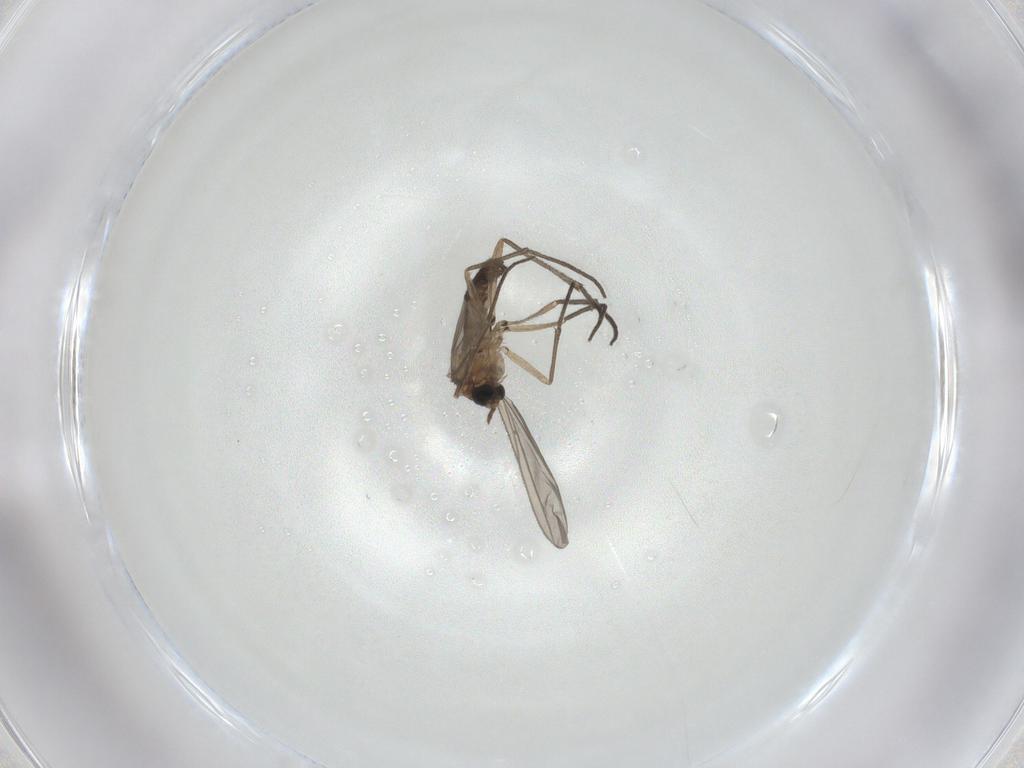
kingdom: Animalia
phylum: Arthropoda
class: Insecta
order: Diptera
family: Sciaridae
